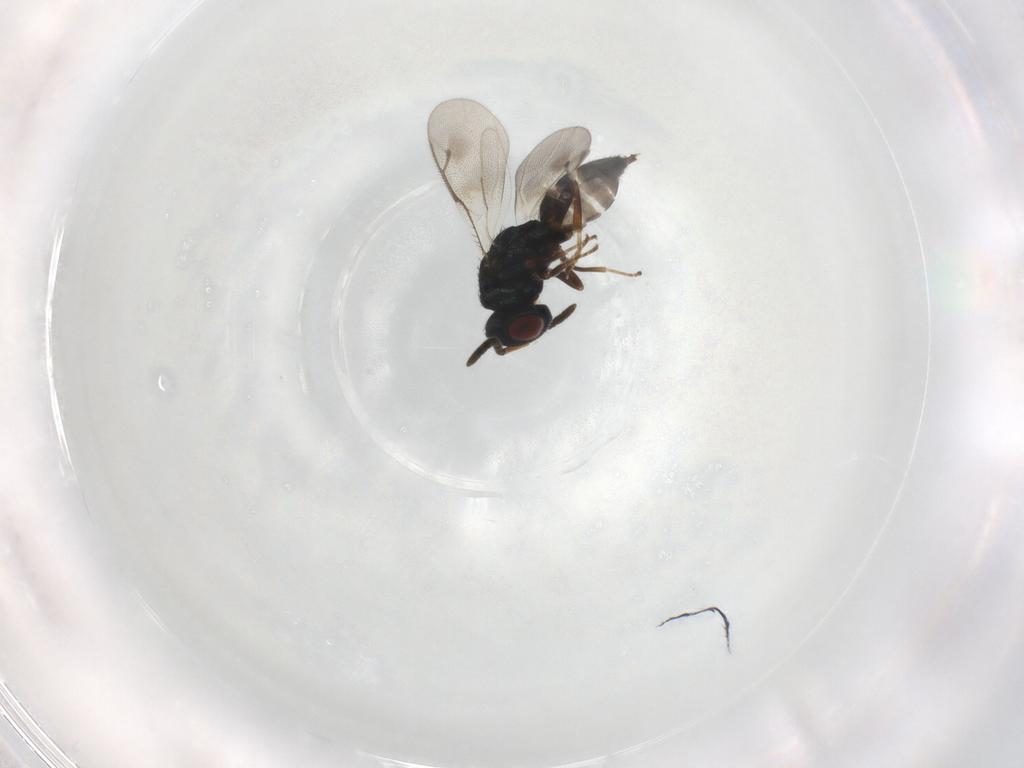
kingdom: Animalia
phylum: Arthropoda
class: Insecta
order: Hymenoptera
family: Pteromalidae
